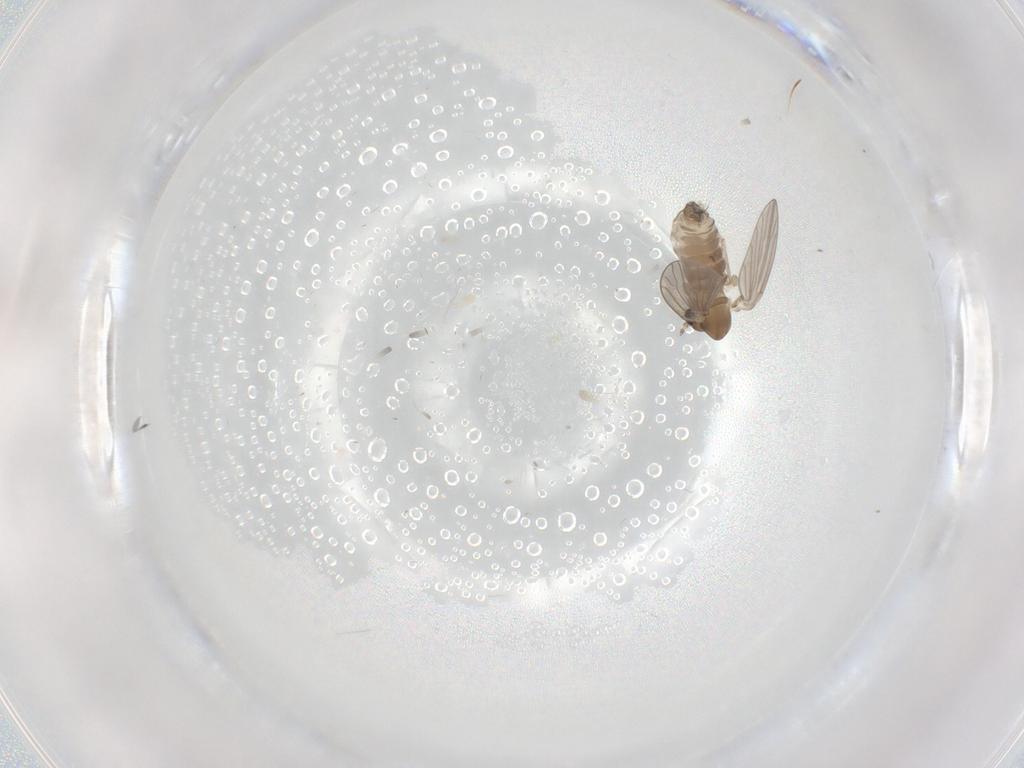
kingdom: Animalia
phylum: Arthropoda
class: Insecta
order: Diptera
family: Chironomidae
